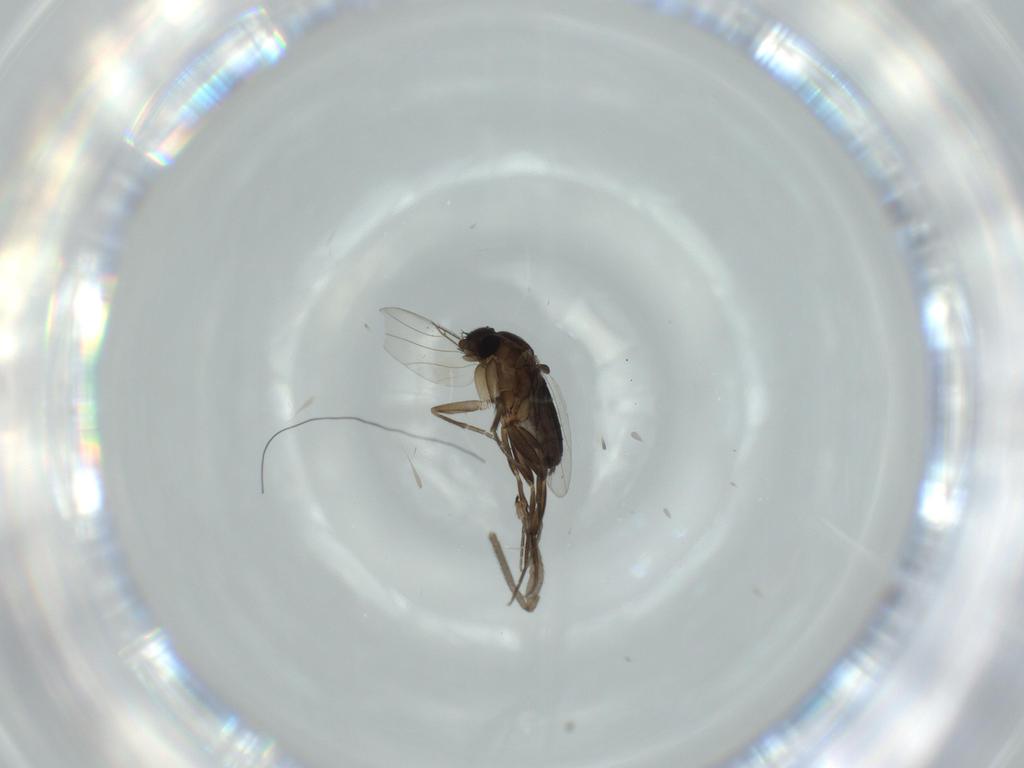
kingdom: Animalia
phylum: Arthropoda
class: Insecta
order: Diptera
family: Phoridae
